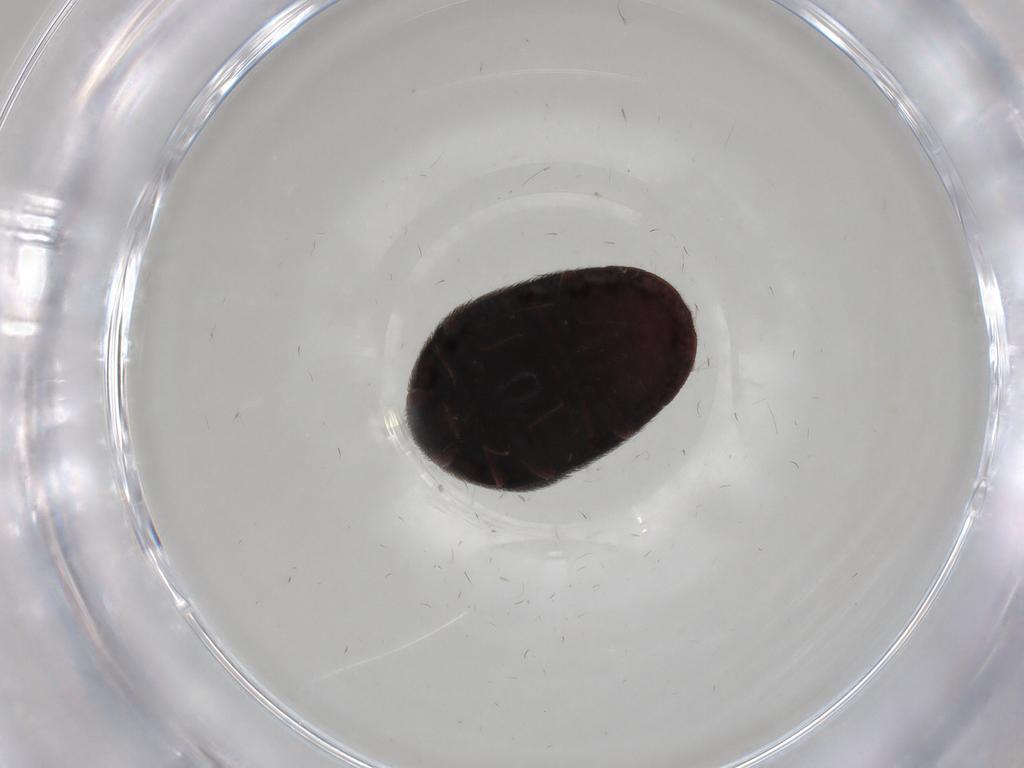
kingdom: Animalia
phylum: Arthropoda
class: Insecta
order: Coleoptera
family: Dermestidae
